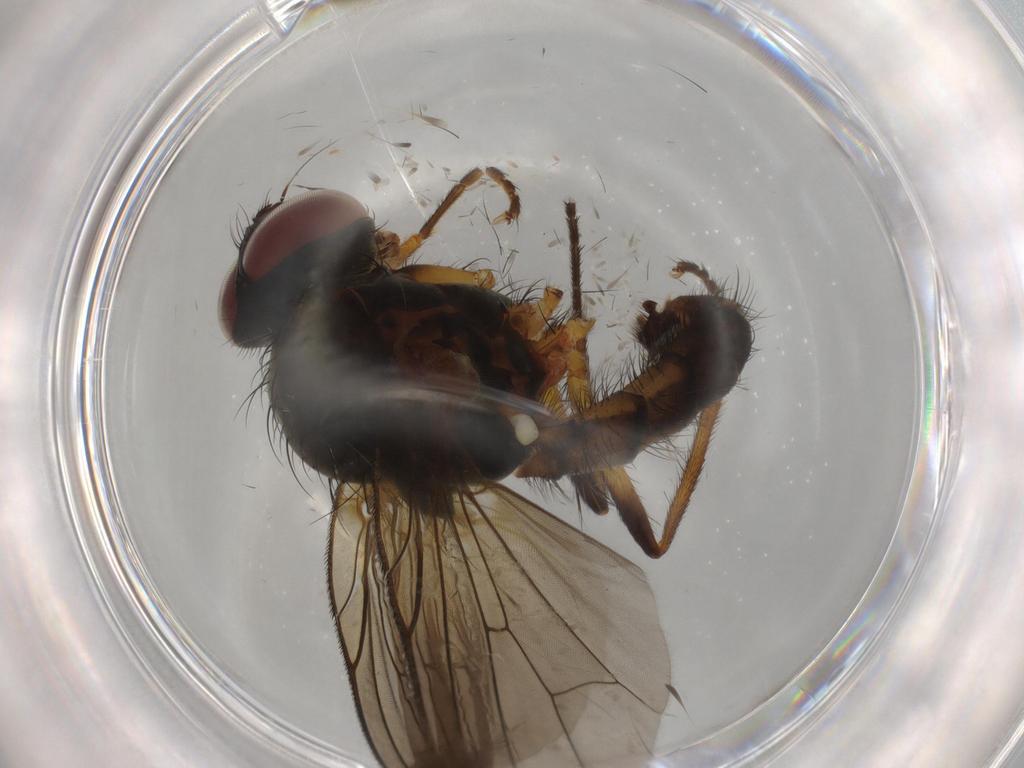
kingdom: Animalia
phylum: Arthropoda
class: Insecta
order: Diptera
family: Anthomyiidae
